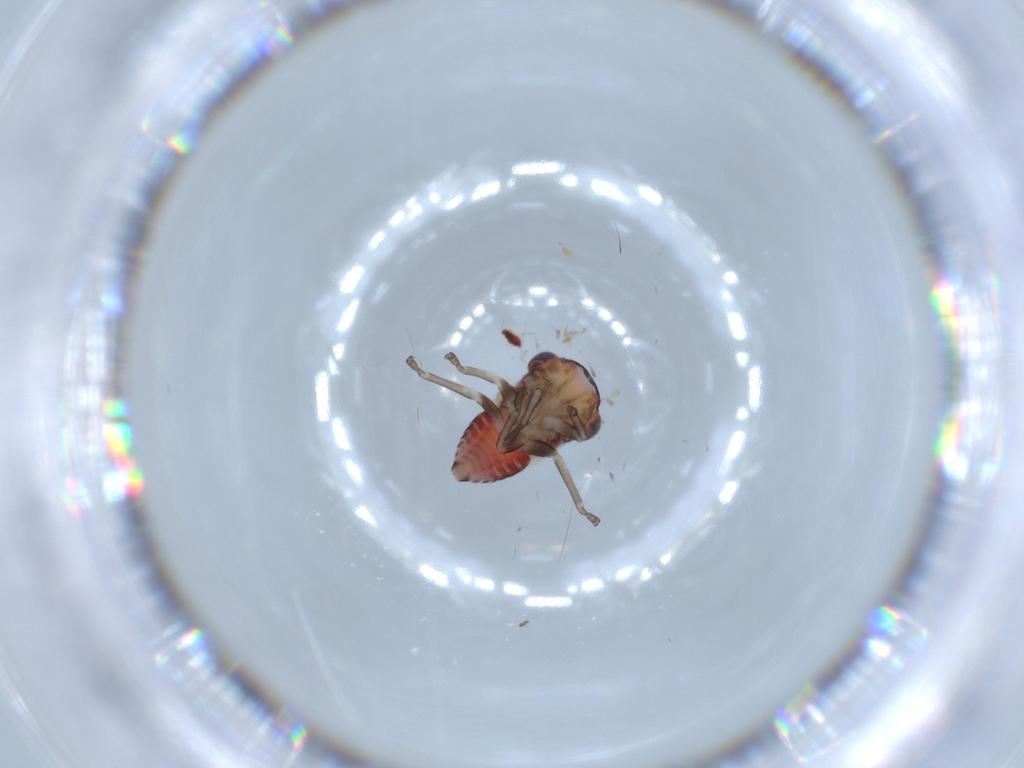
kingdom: Animalia
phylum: Arthropoda
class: Insecta
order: Hemiptera
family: Cicadellidae
